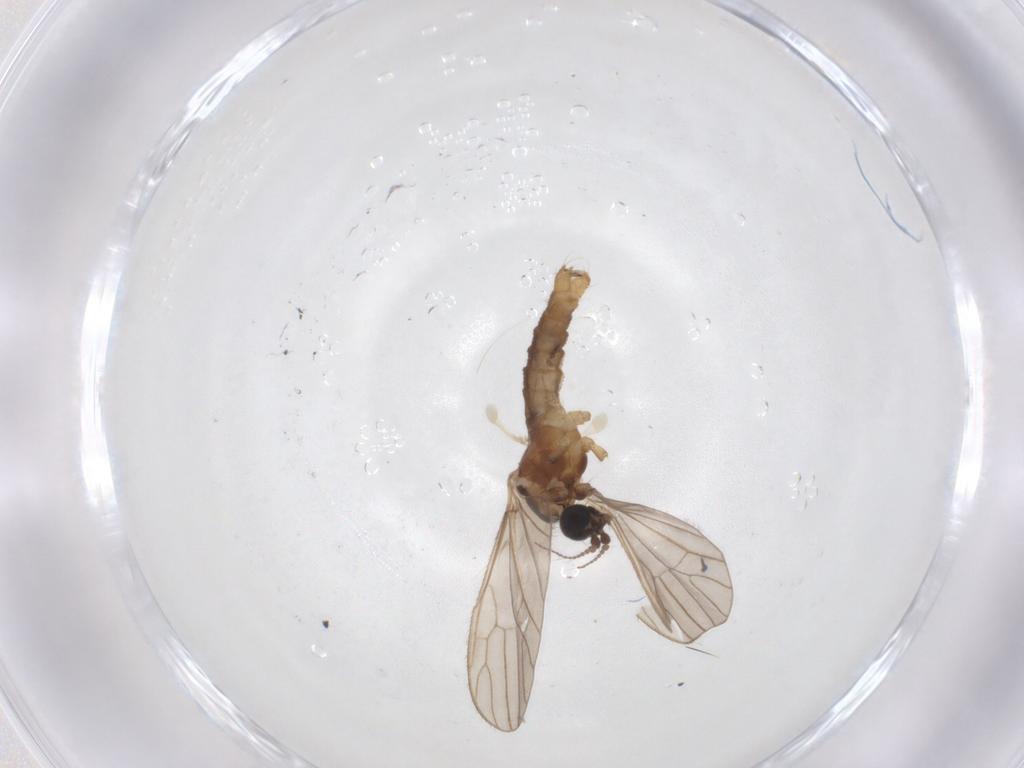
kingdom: Animalia
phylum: Arthropoda
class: Insecta
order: Diptera
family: Limoniidae
